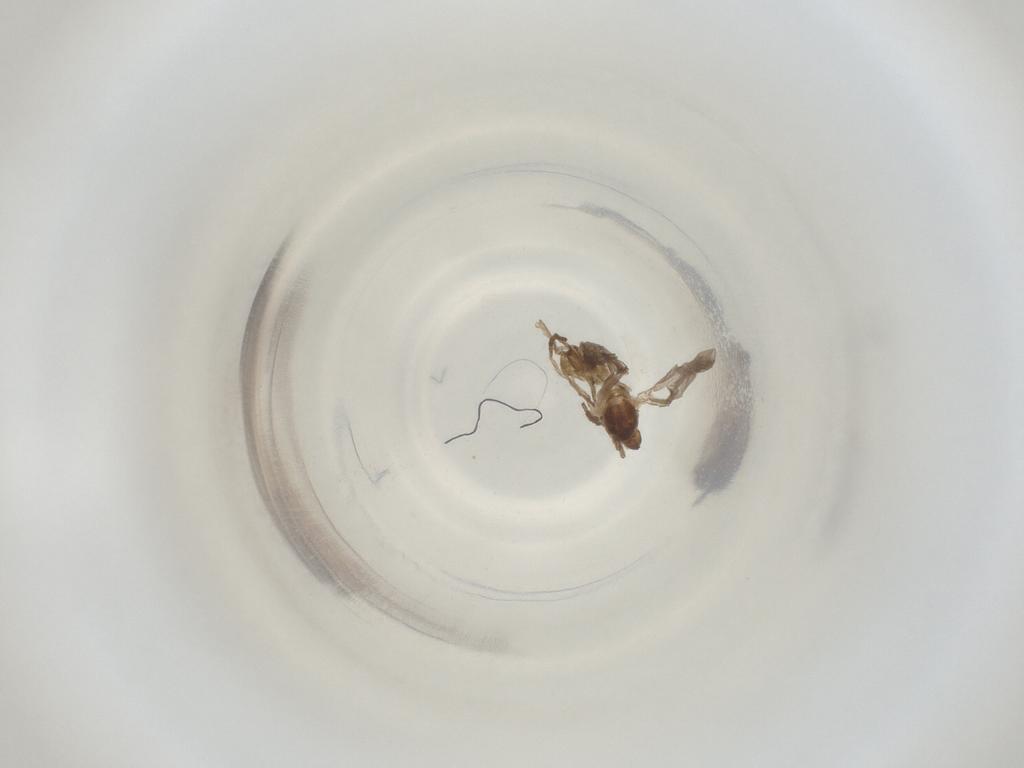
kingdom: Animalia
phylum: Arthropoda
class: Insecta
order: Diptera
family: Cecidomyiidae
